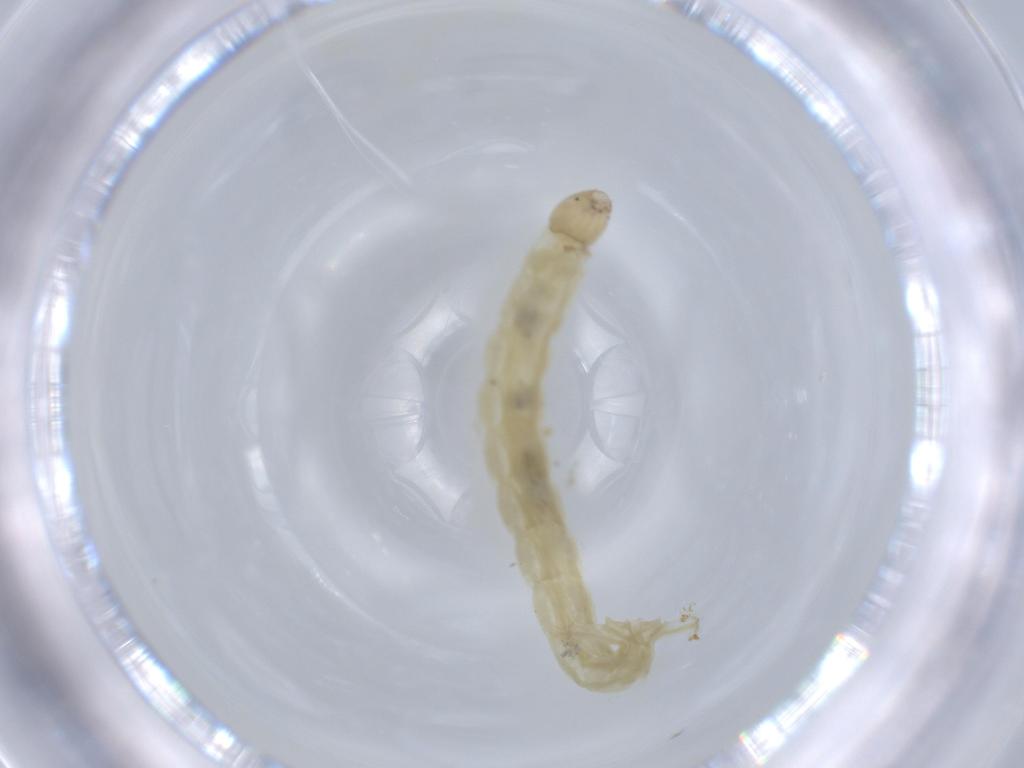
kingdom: Animalia
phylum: Arthropoda
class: Insecta
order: Diptera
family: Chironomidae
